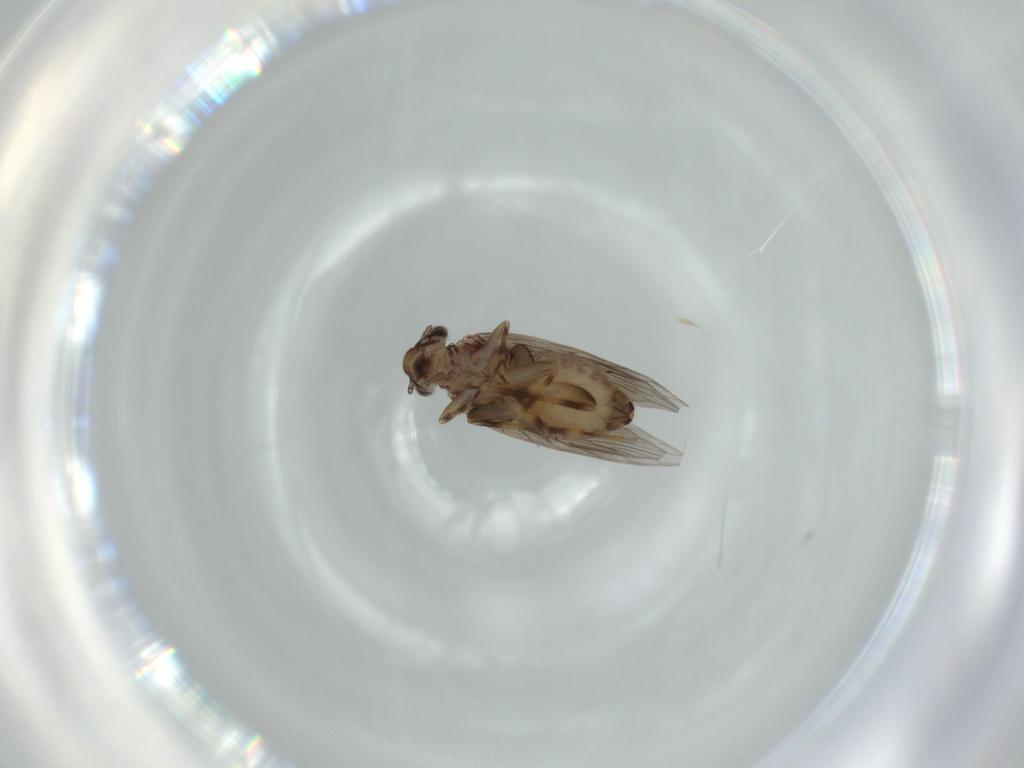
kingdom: Animalia
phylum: Arthropoda
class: Insecta
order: Psocodea
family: Lepidopsocidae
